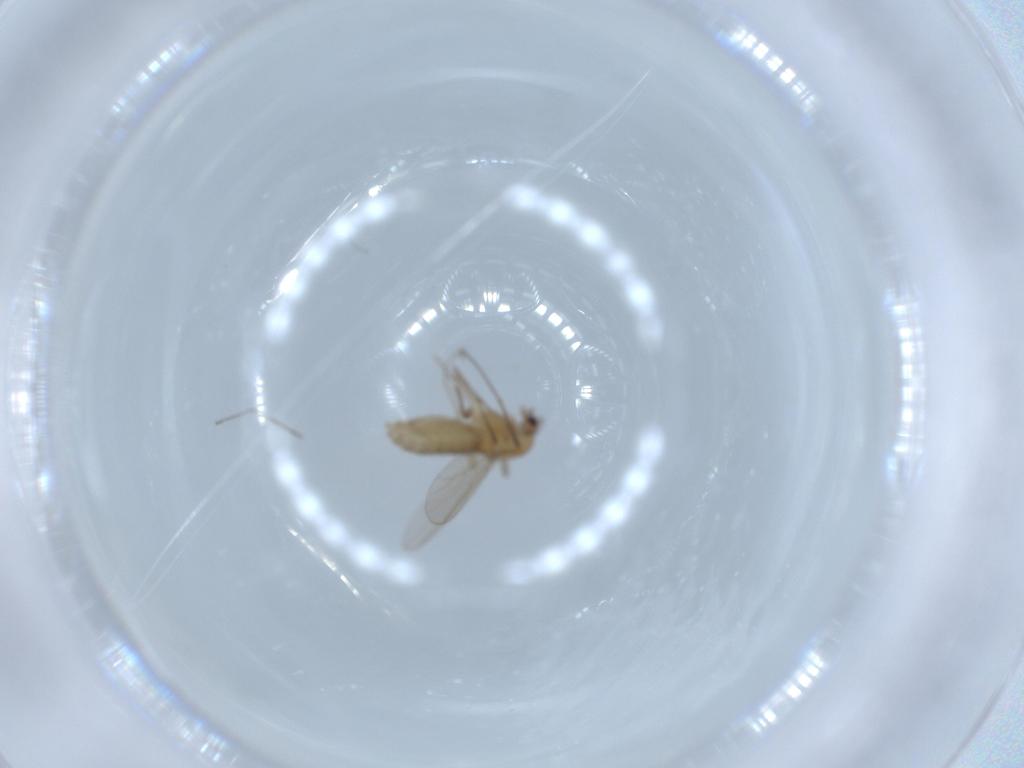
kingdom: Animalia
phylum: Arthropoda
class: Insecta
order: Diptera
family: Chironomidae
